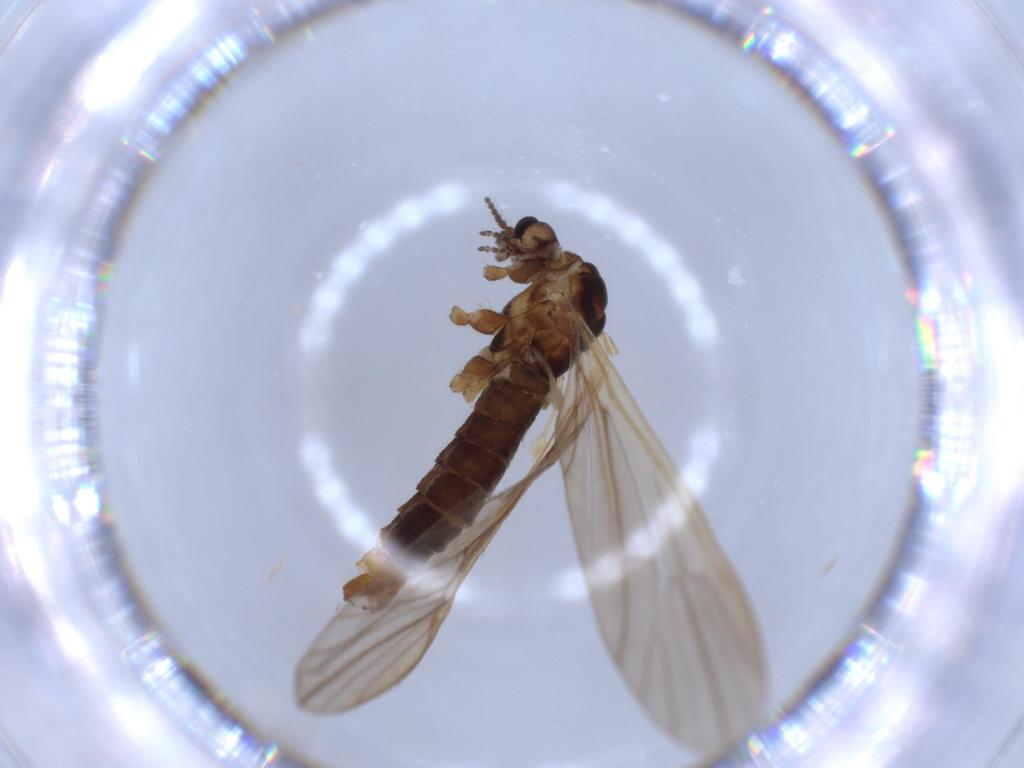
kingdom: Animalia
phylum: Arthropoda
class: Insecta
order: Diptera
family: Limoniidae
